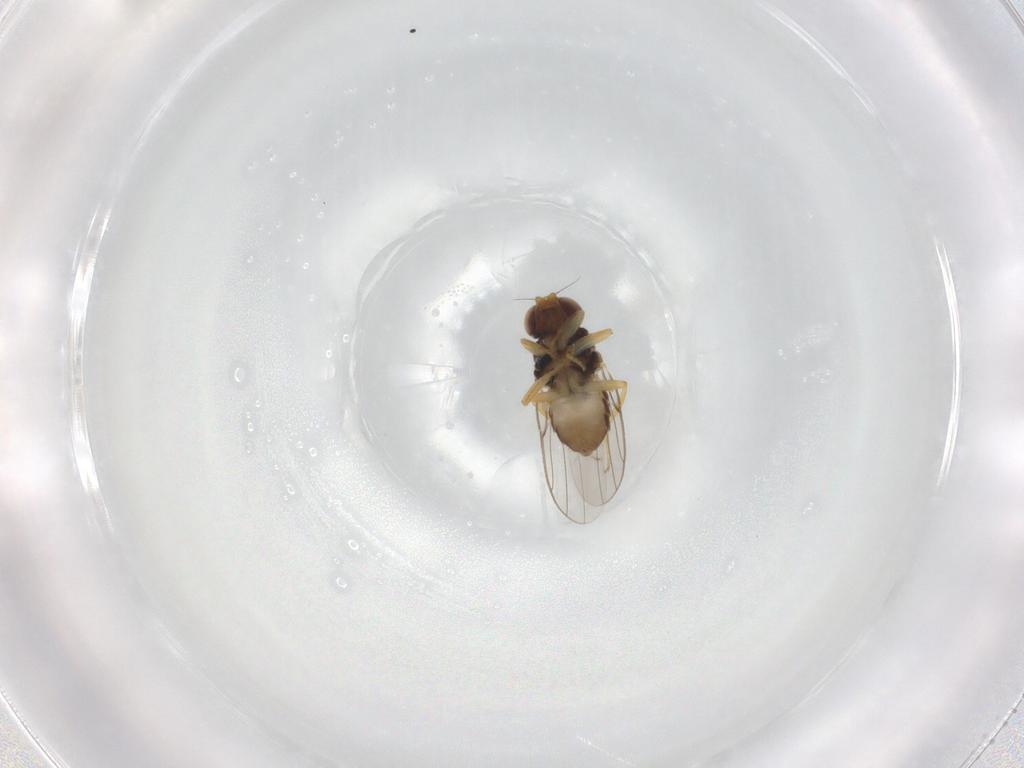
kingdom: Animalia
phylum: Arthropoda
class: Insecta
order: Diptera
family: Chloropidae
